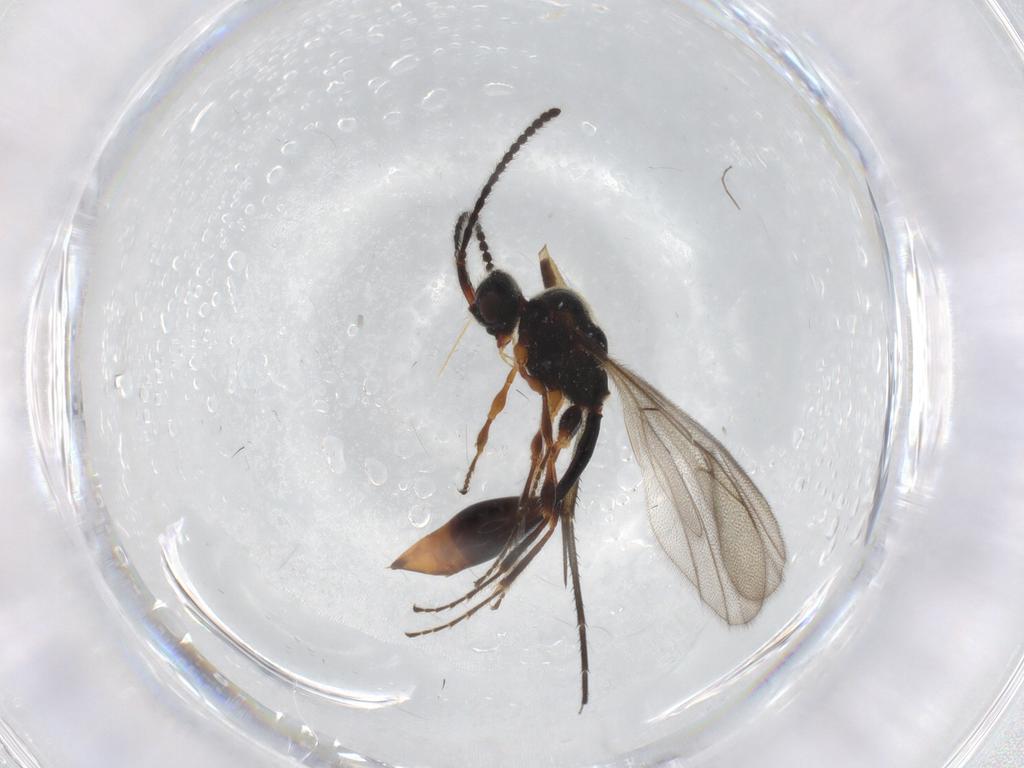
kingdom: Animalia
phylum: Arthropoda
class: Insecta
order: Hymenoptera
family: Diapriidae
